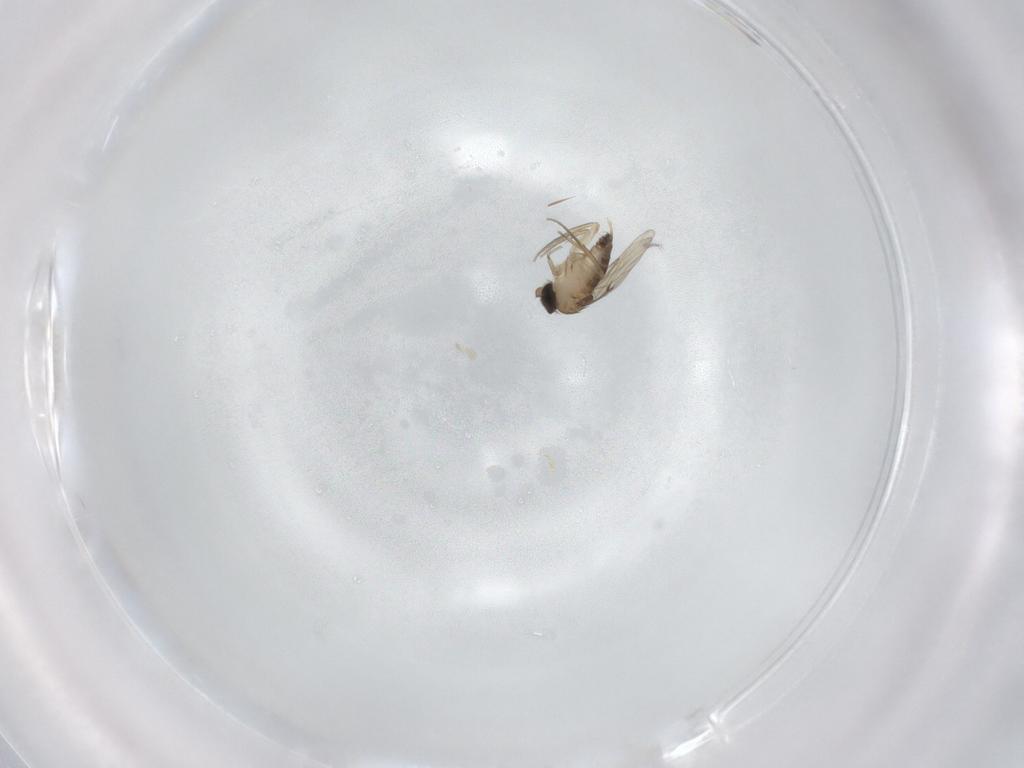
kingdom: Animalia
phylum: Arthropoda
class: Insecta
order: Diptera
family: Phoridae
